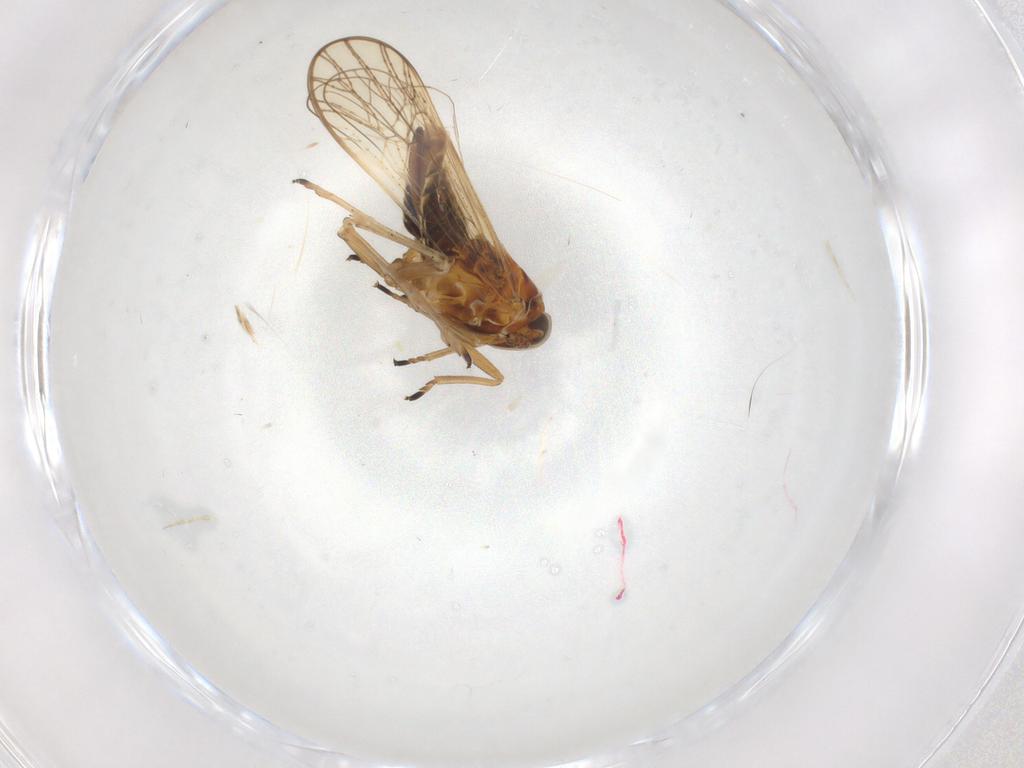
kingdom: Animalia
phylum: Arthropoda
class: Insecta
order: Hemiptera
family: Delphacidae
